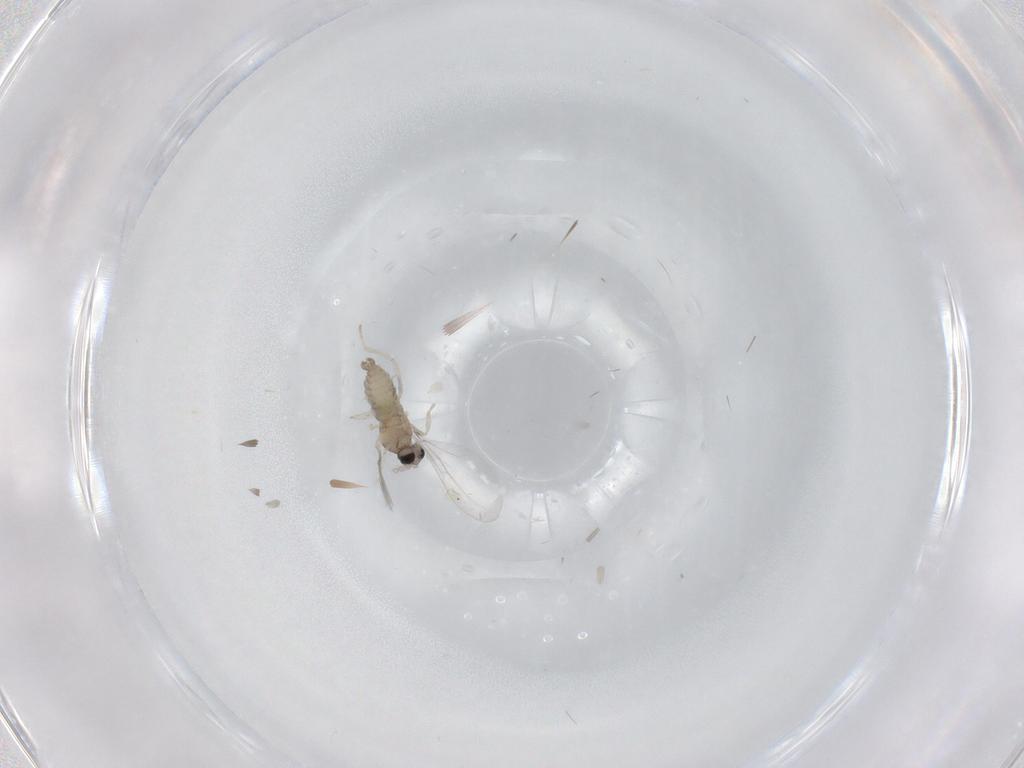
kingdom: Animalia
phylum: Arthropoda
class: Insecta
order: Diptera
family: Cecidomyiidae
